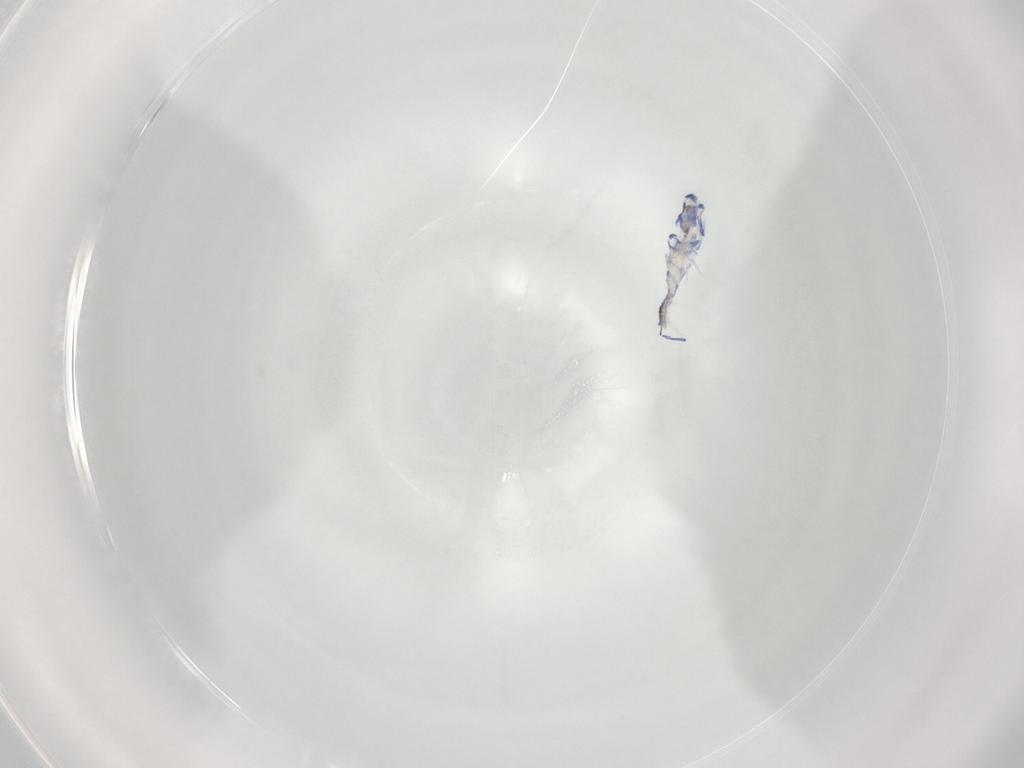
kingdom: Animalia
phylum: Arthropoda
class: Collembola
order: Entomobryomorpha
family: Entomobryidae
